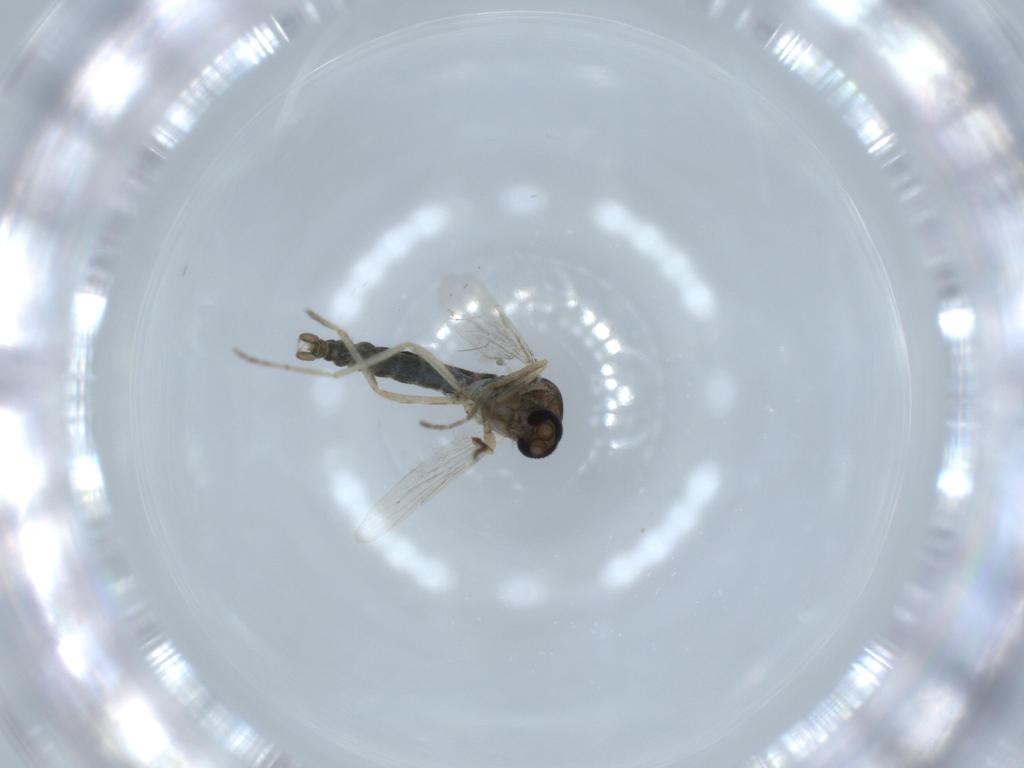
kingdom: Animalia
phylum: Arthropoda
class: Insecta
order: Diptera
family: Ceratopogonidae
